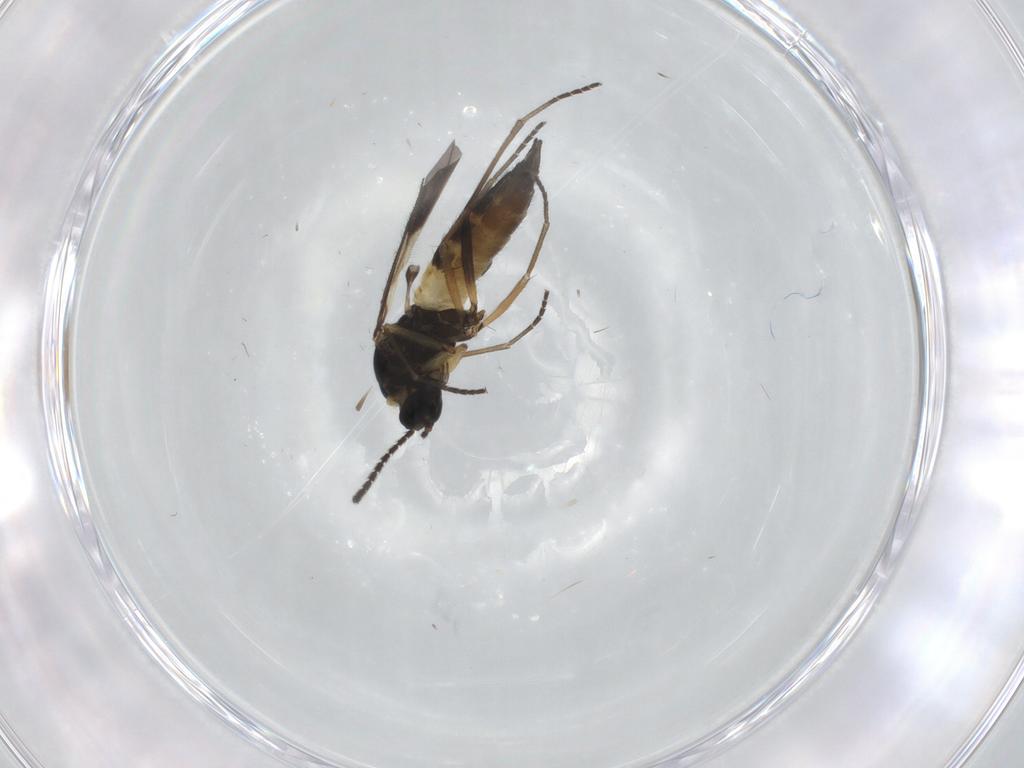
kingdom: Animalia
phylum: Arthropoda
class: Insecta
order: Diptera
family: Sciaridae
